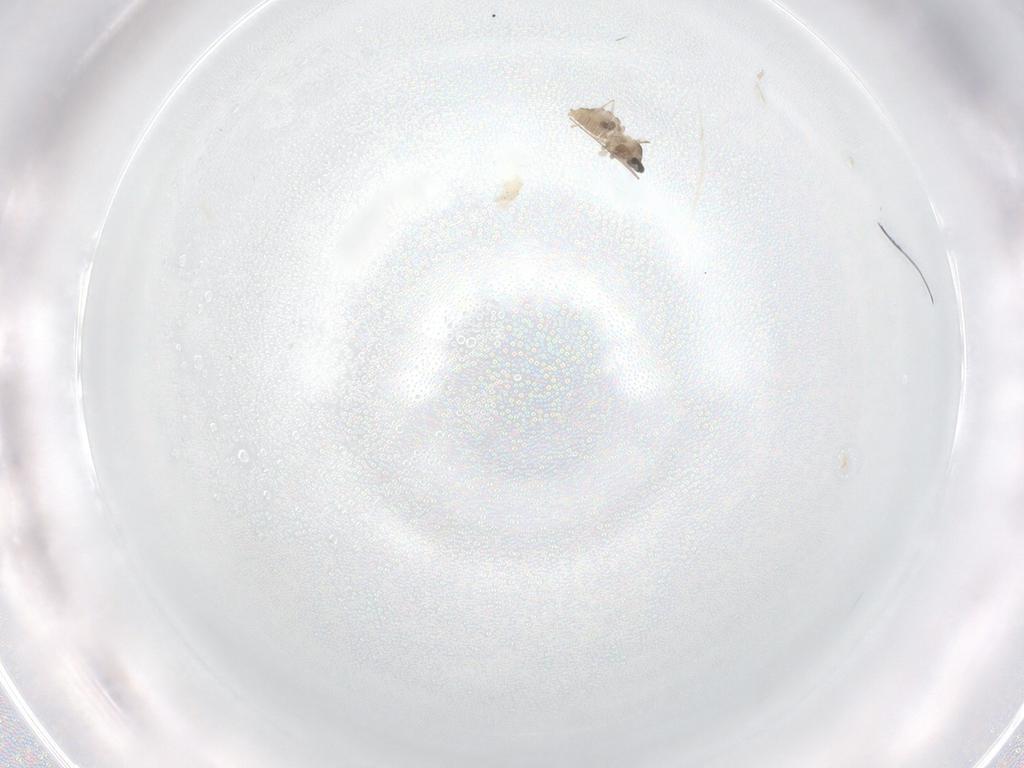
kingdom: Animalia
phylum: Arthropoda
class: Insecta
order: Diptera
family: Cecidomyiidae
